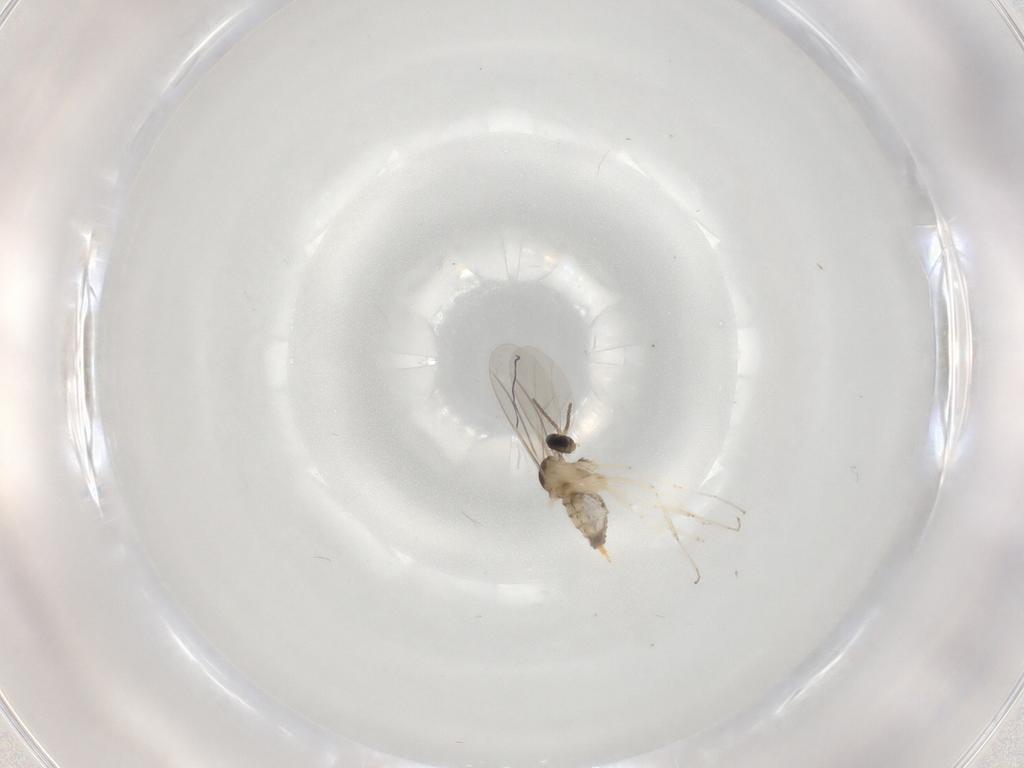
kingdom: Animalia
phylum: Arthropoda
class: Insecta
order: Diptera
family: Cecidomyiidae
